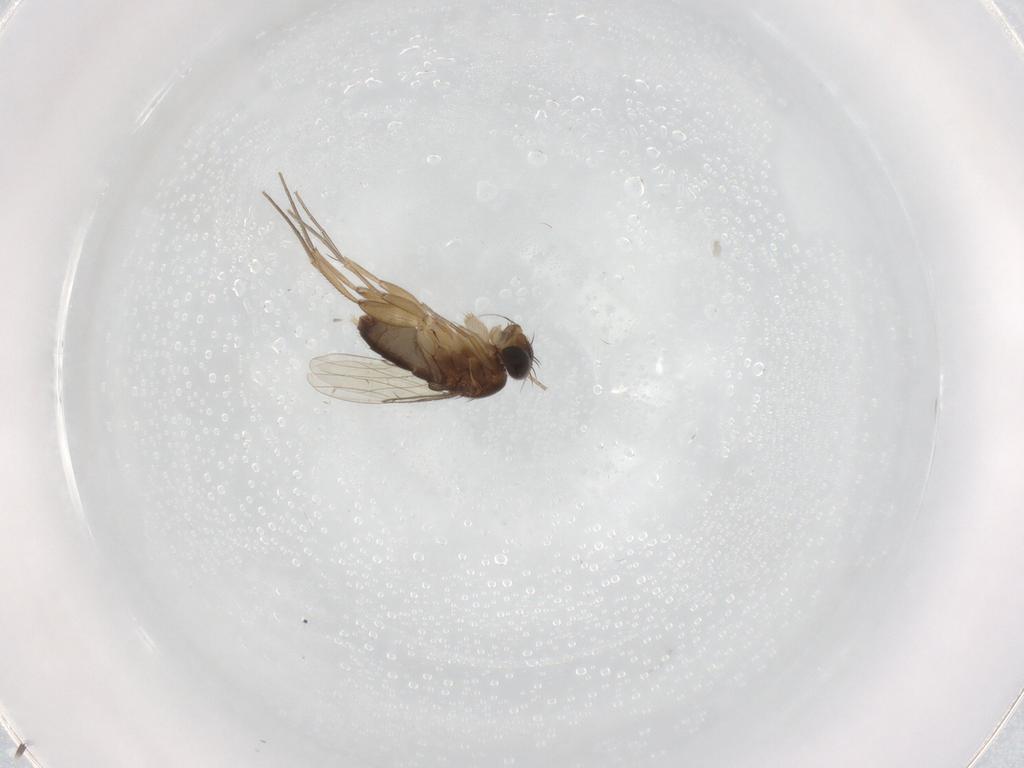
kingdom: Animalia
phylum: Arthropoda
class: Insecta
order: Diptera
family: Phoridae
